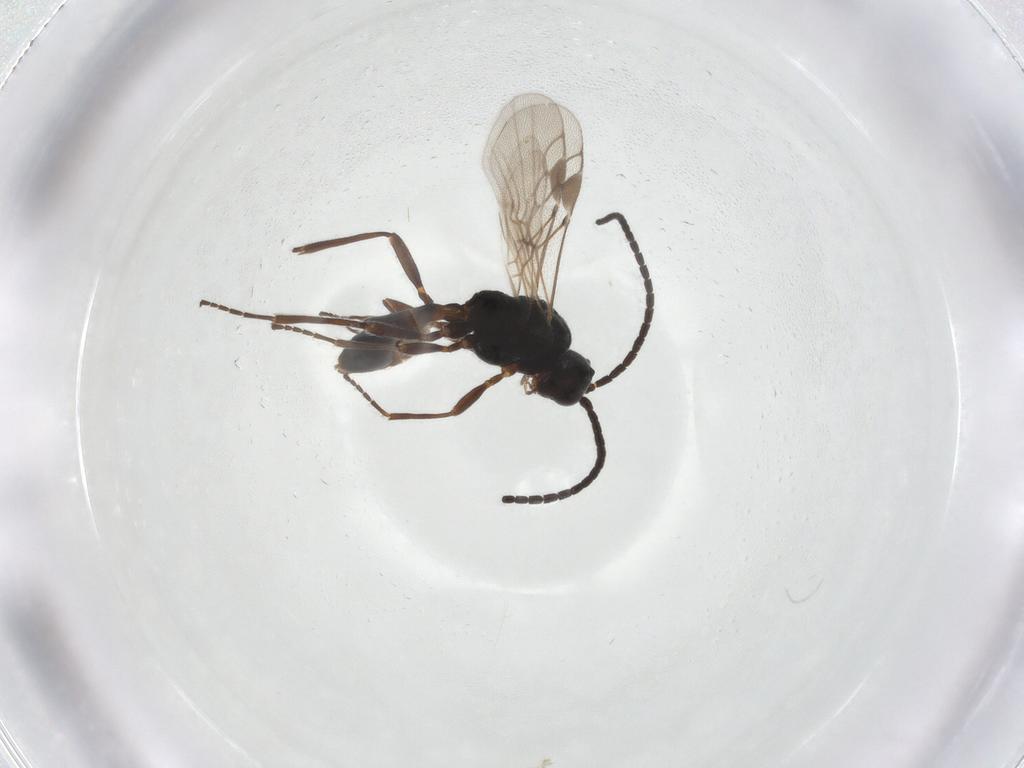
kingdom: Animalia
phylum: Arthropoda
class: Insecta
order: Hymenoptera
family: Braconidae
